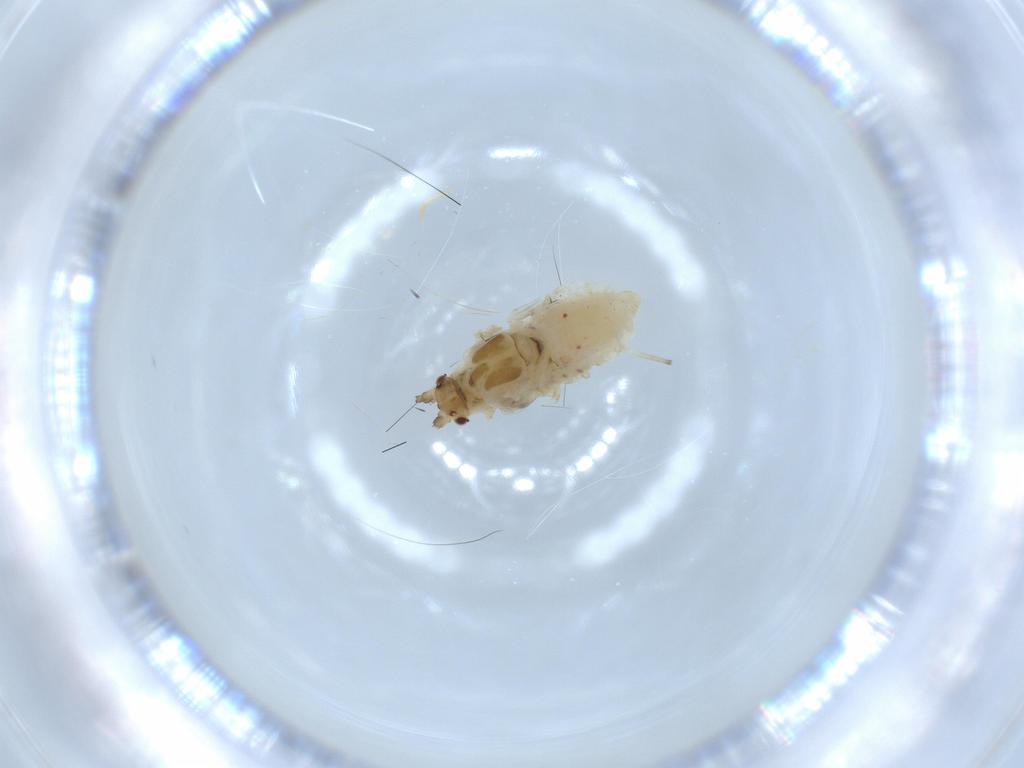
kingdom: Animalia
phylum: Arthropoda
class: Insecta
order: Hemiptera
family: Aphididae
